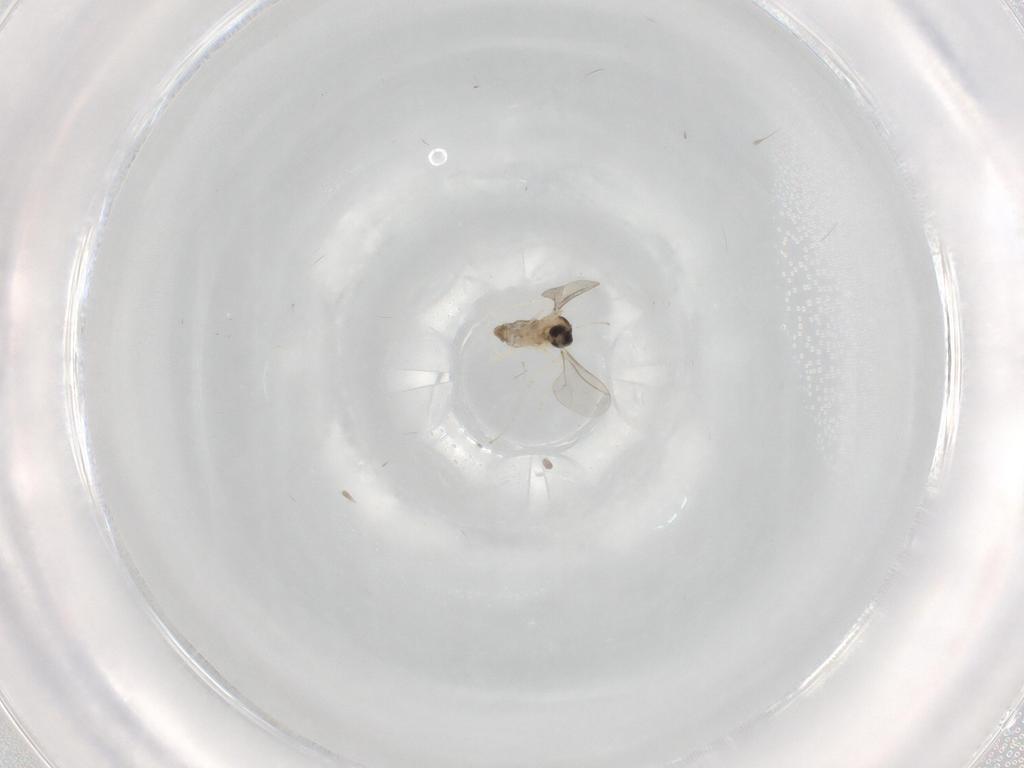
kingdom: Animalia
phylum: Arthropoda
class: Insecta
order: Diptera
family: Cecidomyiidae
